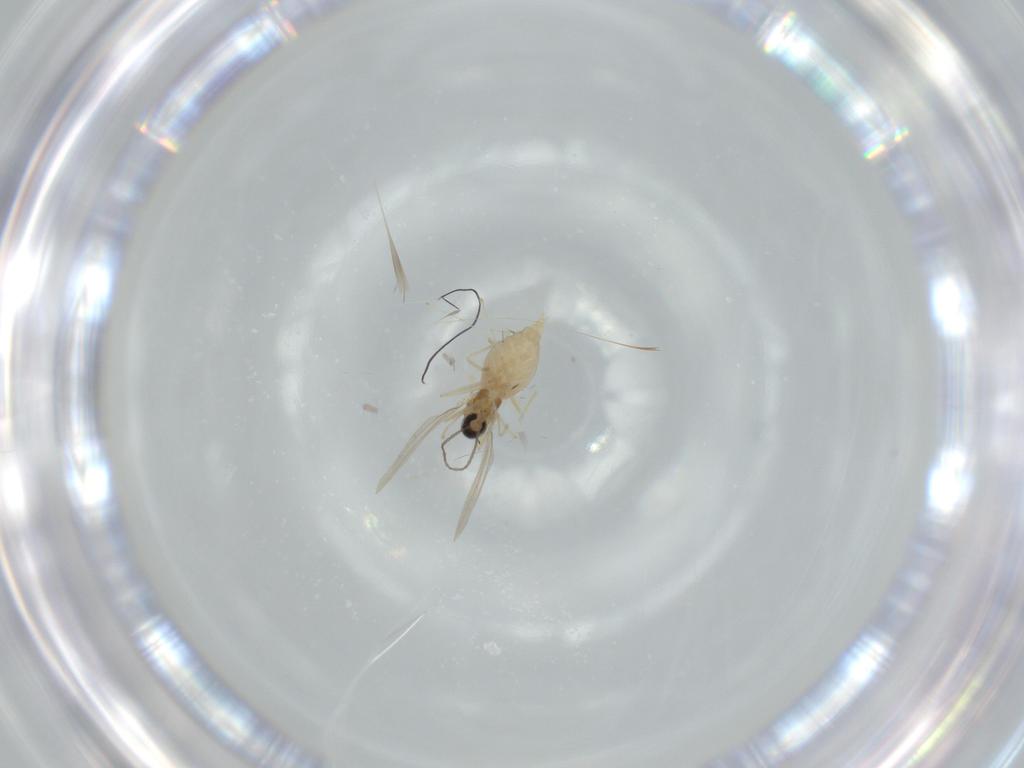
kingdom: Animalia
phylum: Arthropoda
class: Insecta
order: Diptera
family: Cecidomyiidae
